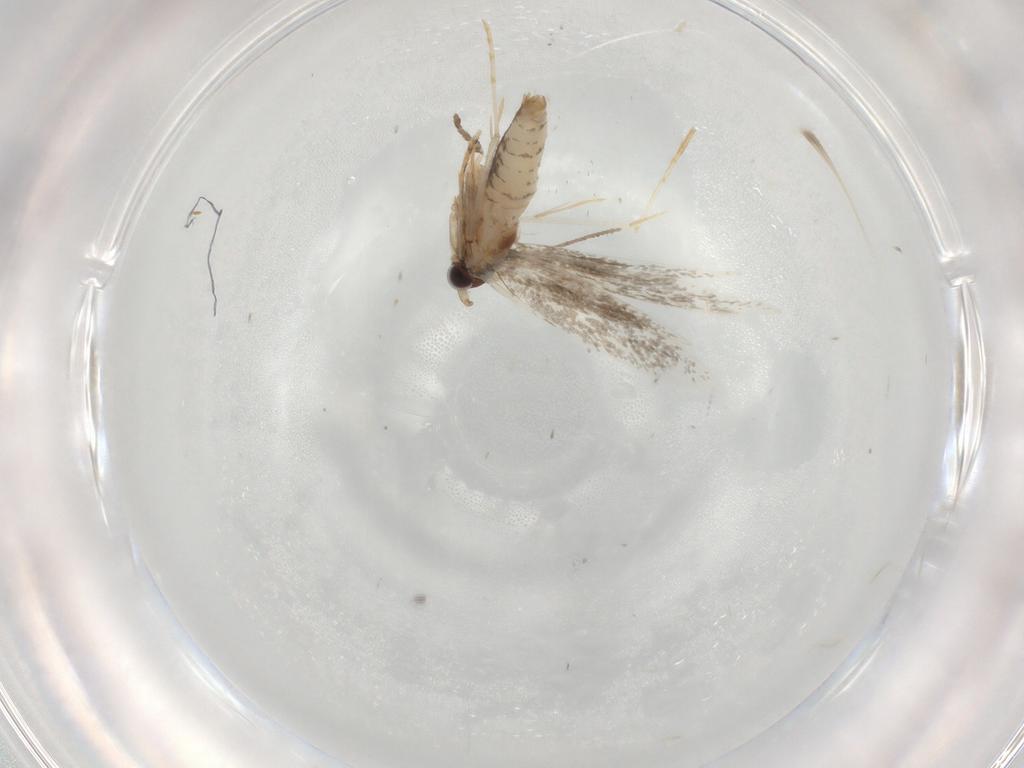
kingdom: Animalia
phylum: Arthropoda
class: Insecta
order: Lepidoptera
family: Tineidae
